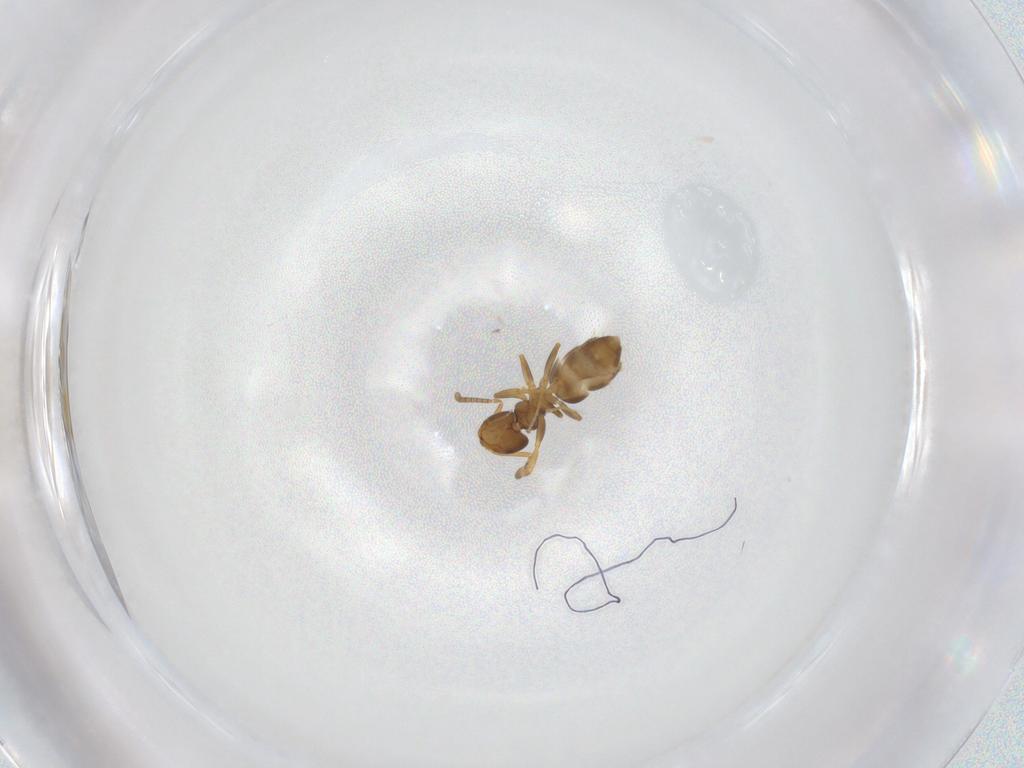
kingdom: Animalia
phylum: Arthropoda
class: Insecta
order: Hymenoptera
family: Formicidae
